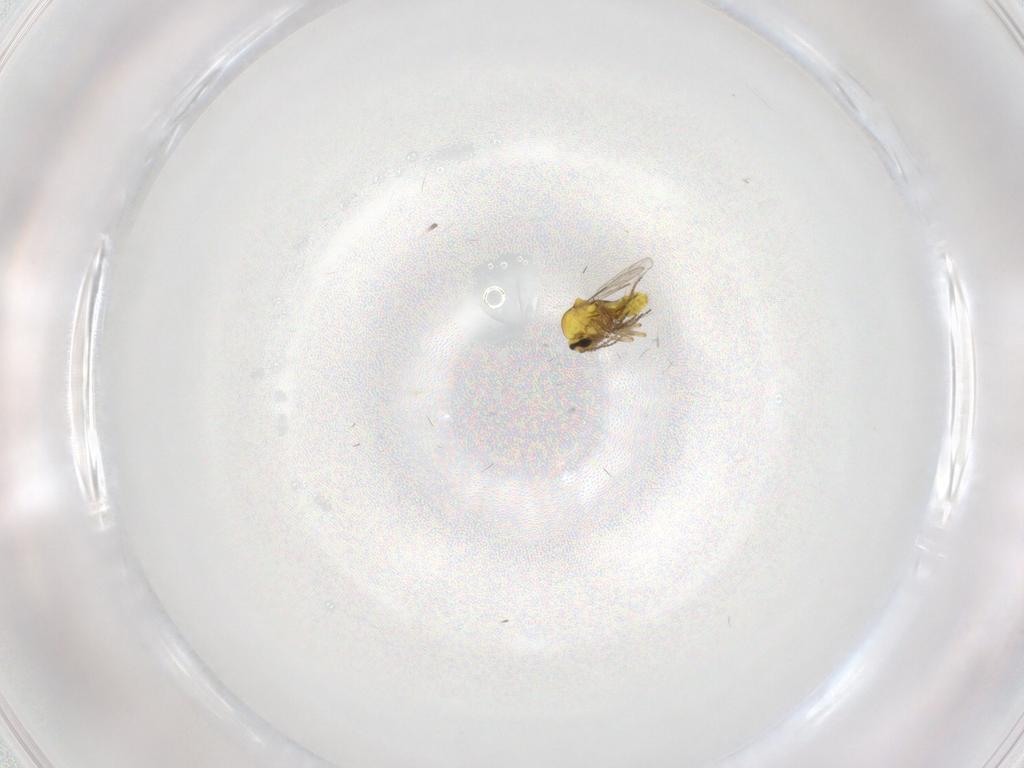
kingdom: Animalia
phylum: Arthropoda
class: Insecta
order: Diptera
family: Ceratopogonidae
